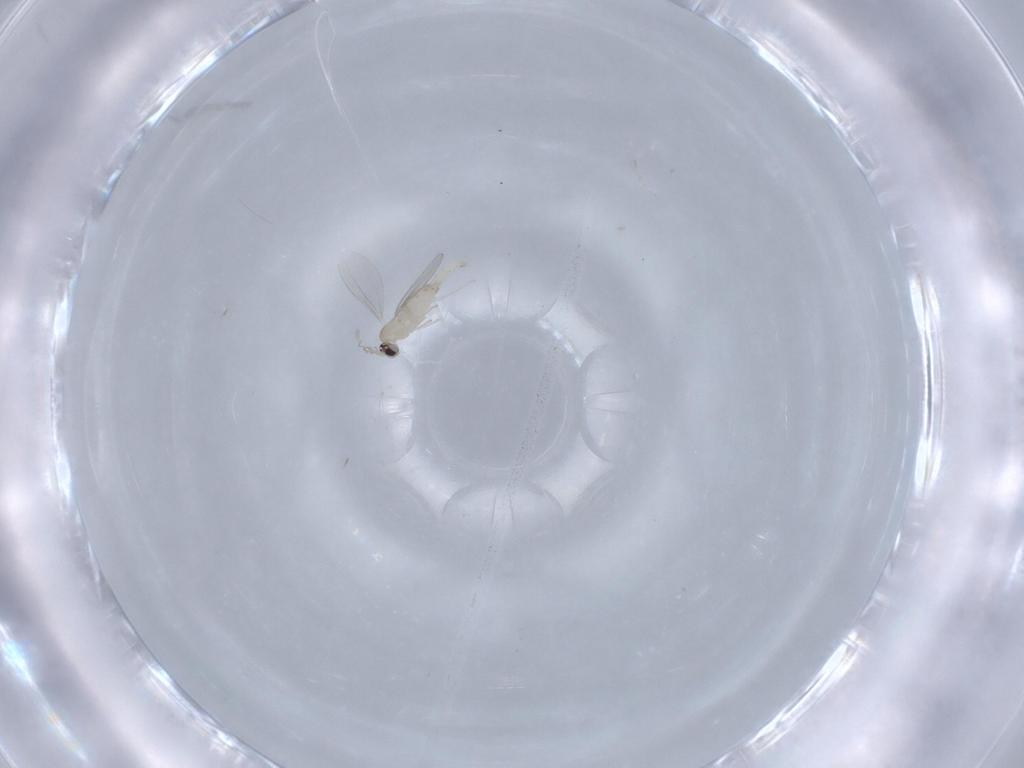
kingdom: Animalia
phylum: Arthropoda
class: Insecta
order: Diptera
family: Cecidomyiidae
